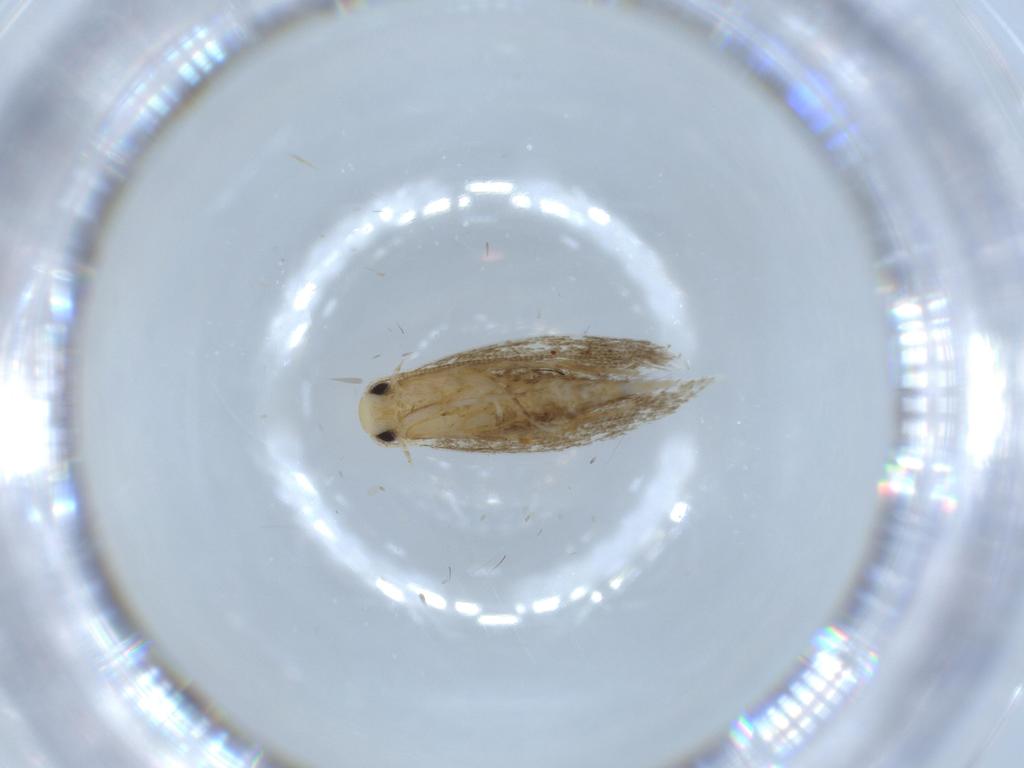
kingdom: Animalia
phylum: Arthropoda
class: Insecta
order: Lepidoptera
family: Tineidae
